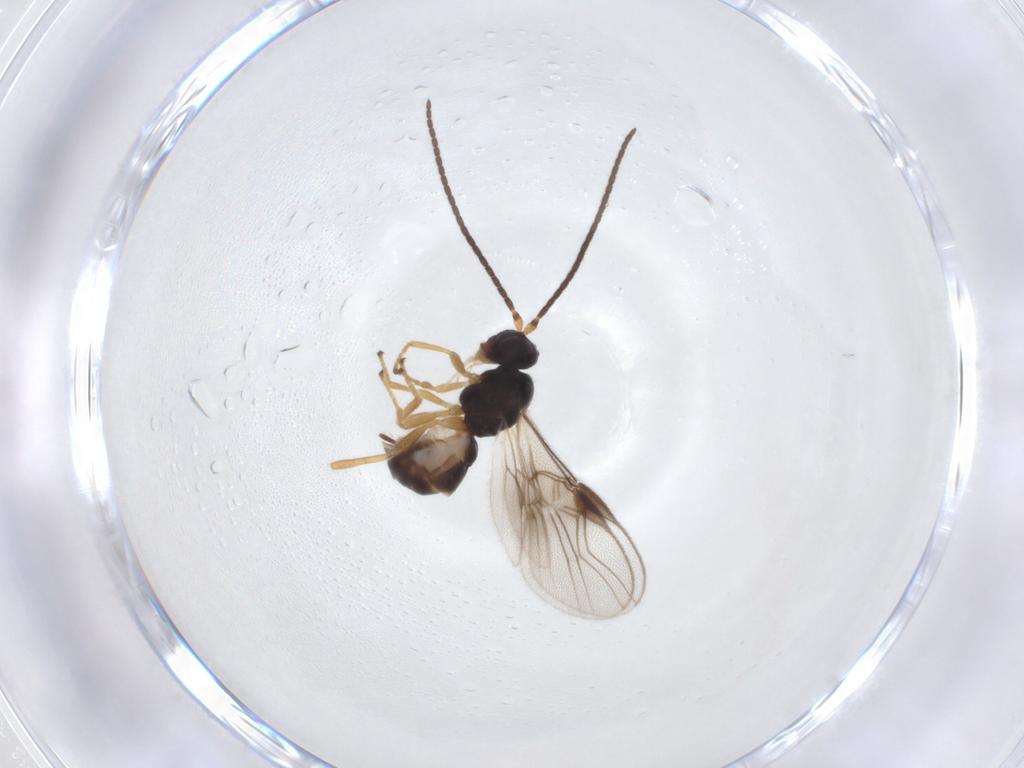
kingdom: Animalia
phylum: Arthropoda
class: Insecta
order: Hymenoptera
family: Braconidae
